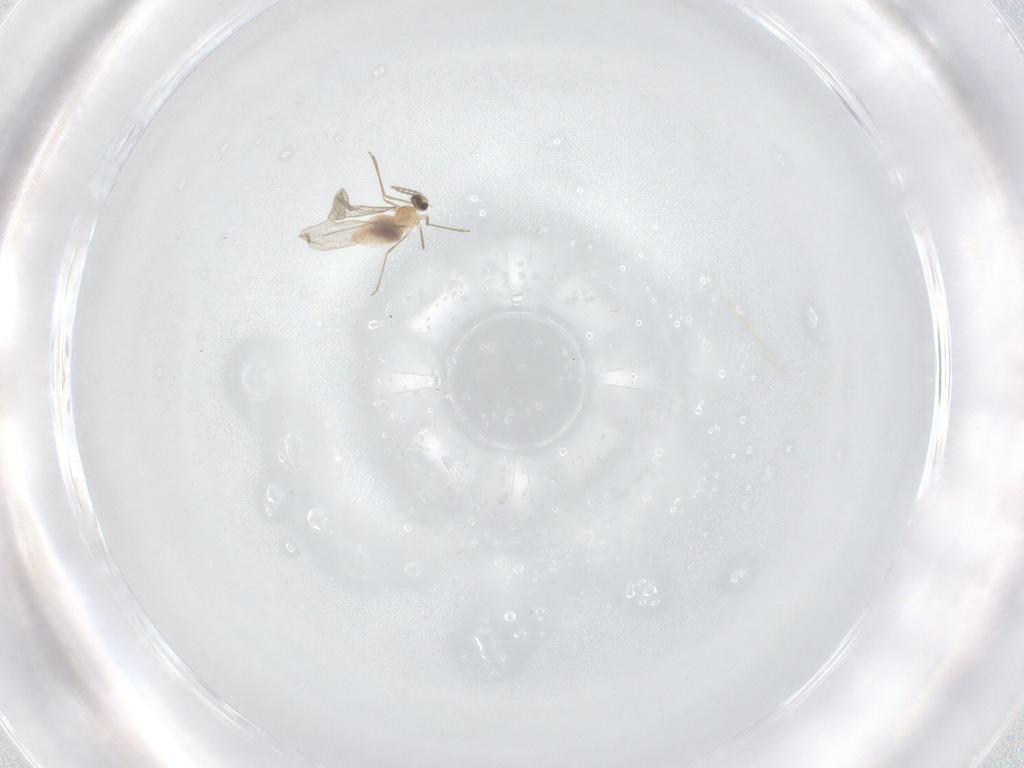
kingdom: Animalia
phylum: Arthropoda
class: Insecta
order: Diptera
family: Cecidomyiidae
